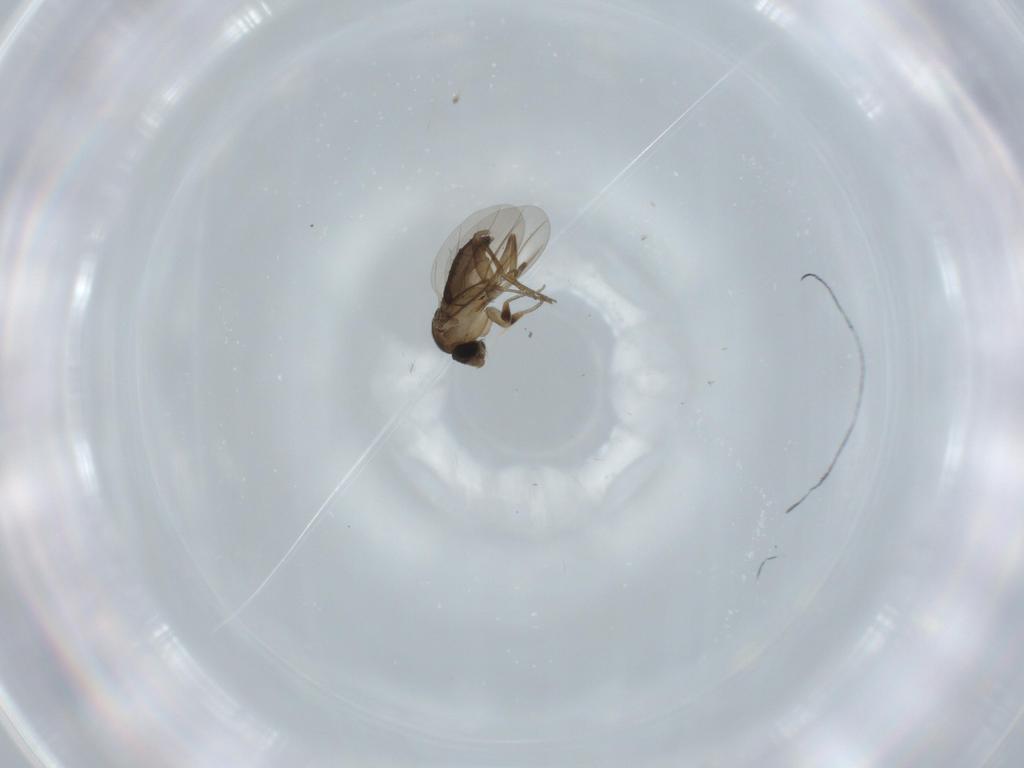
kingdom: Animalia
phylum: Arthropoda
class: Insecta
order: Diptera
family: Phoridae
